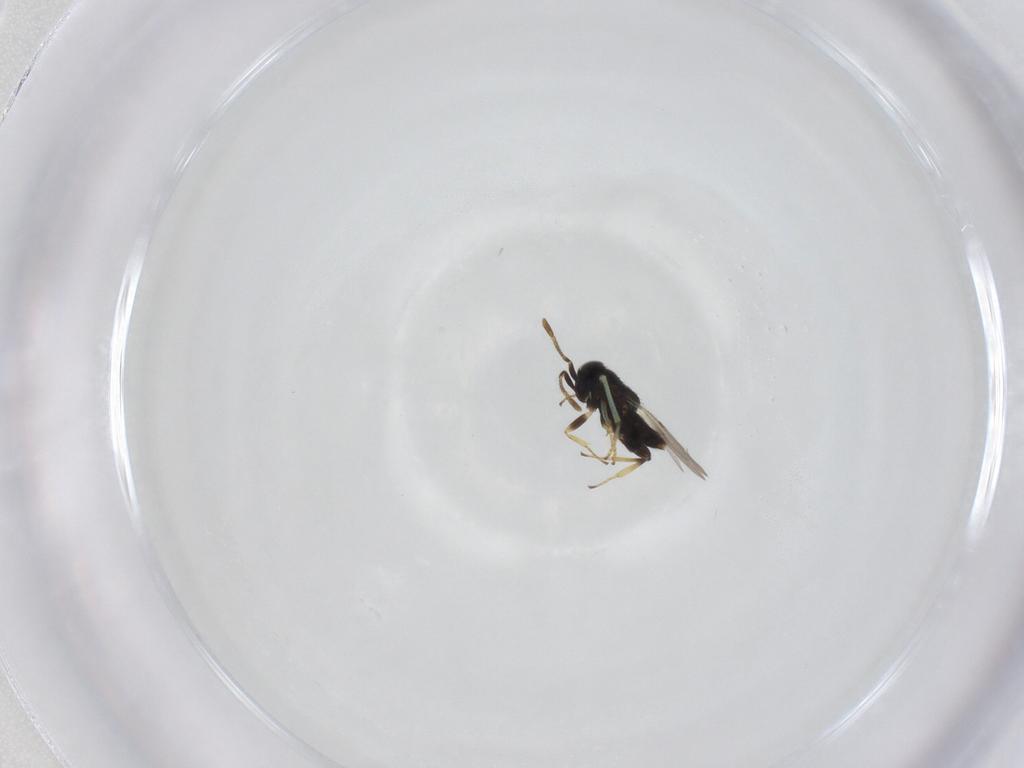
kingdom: Animalia
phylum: Arthropoda
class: Insecta
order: Hymenoptera
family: Encyrtidae
